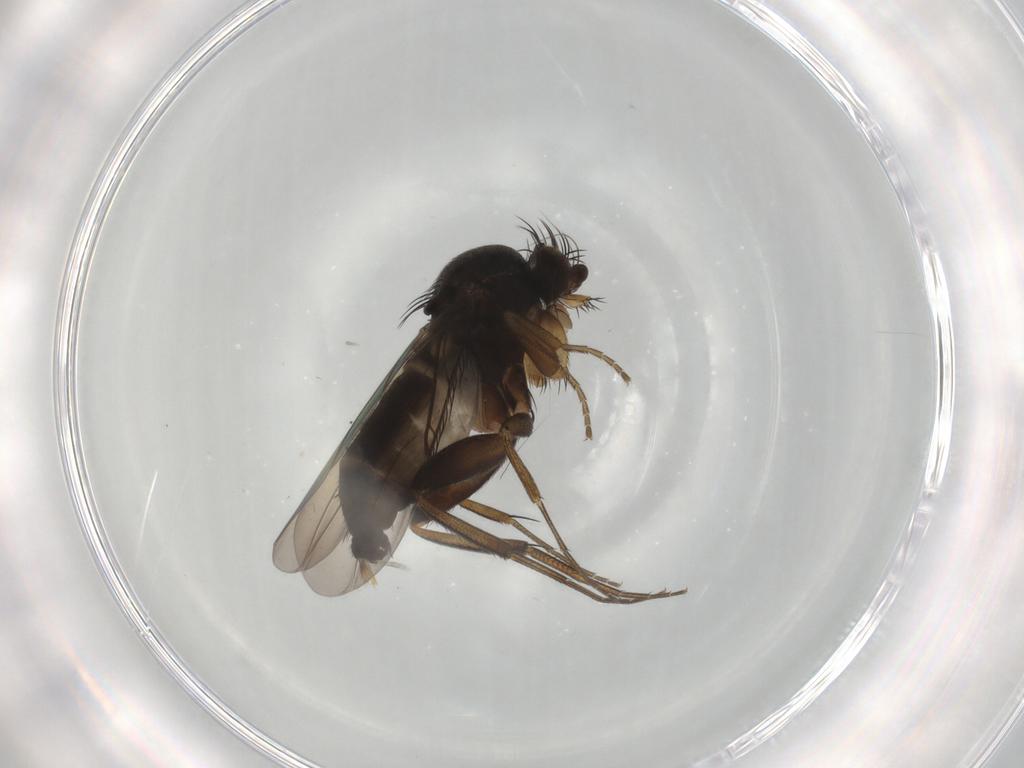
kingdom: Animalia
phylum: Arthropoda
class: Insecta
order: Diptera
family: Phoridae
